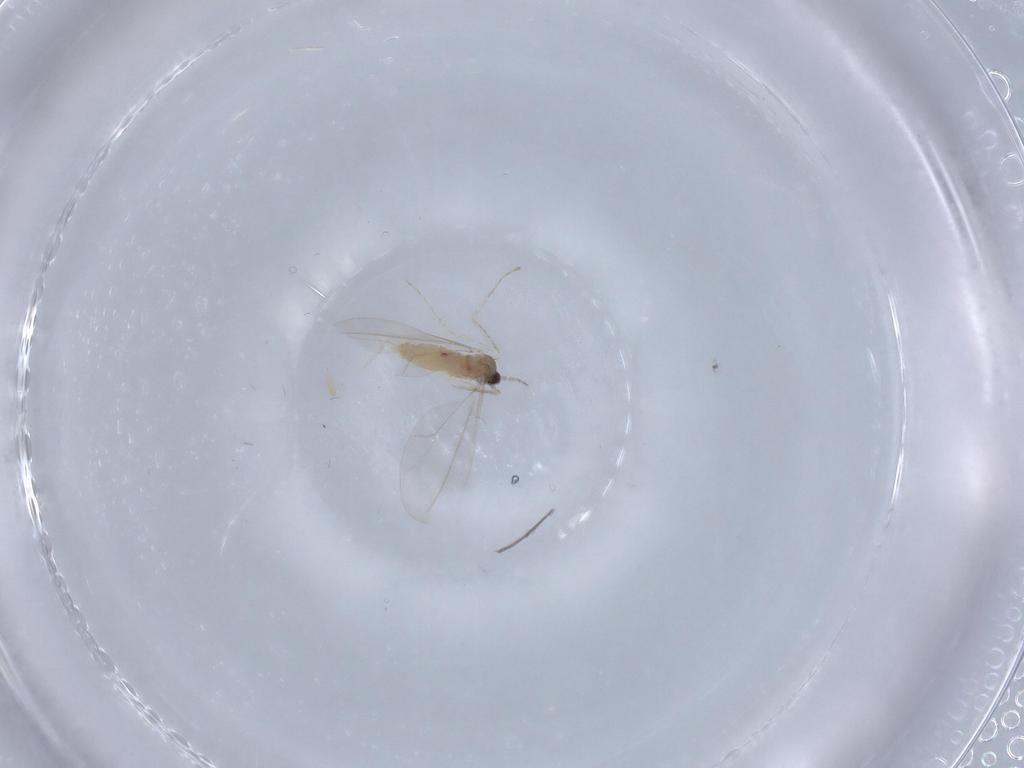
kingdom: Animalia
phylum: Arthropoda
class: Insecta
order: Diptera
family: Cecidomyiidae
